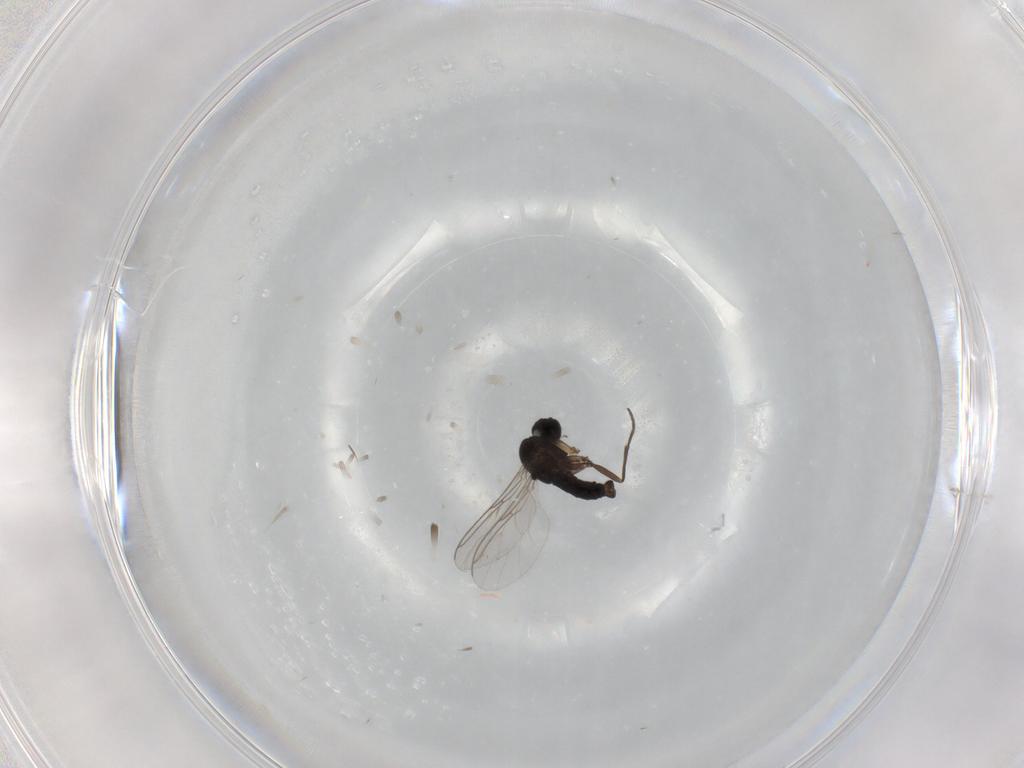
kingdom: Animalia
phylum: Arthropoda
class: Insecta
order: Diptera
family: Sciaridae
